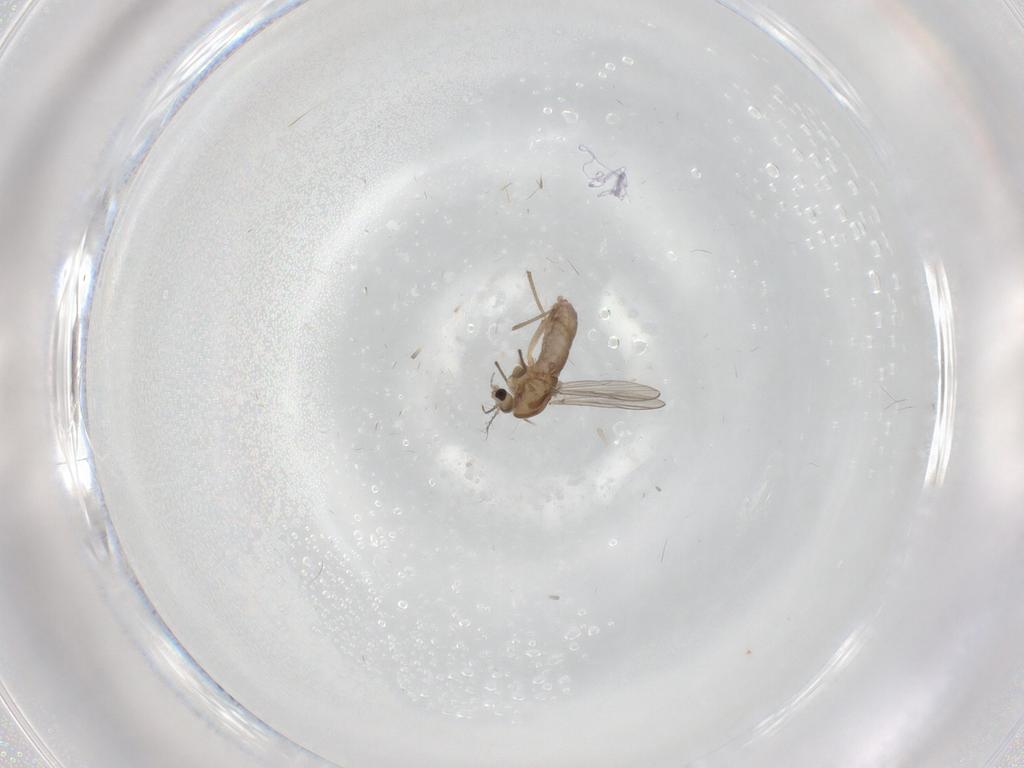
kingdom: Animalia
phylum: Arthropoda
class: Insecta
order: Diptera
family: Chironomidae
